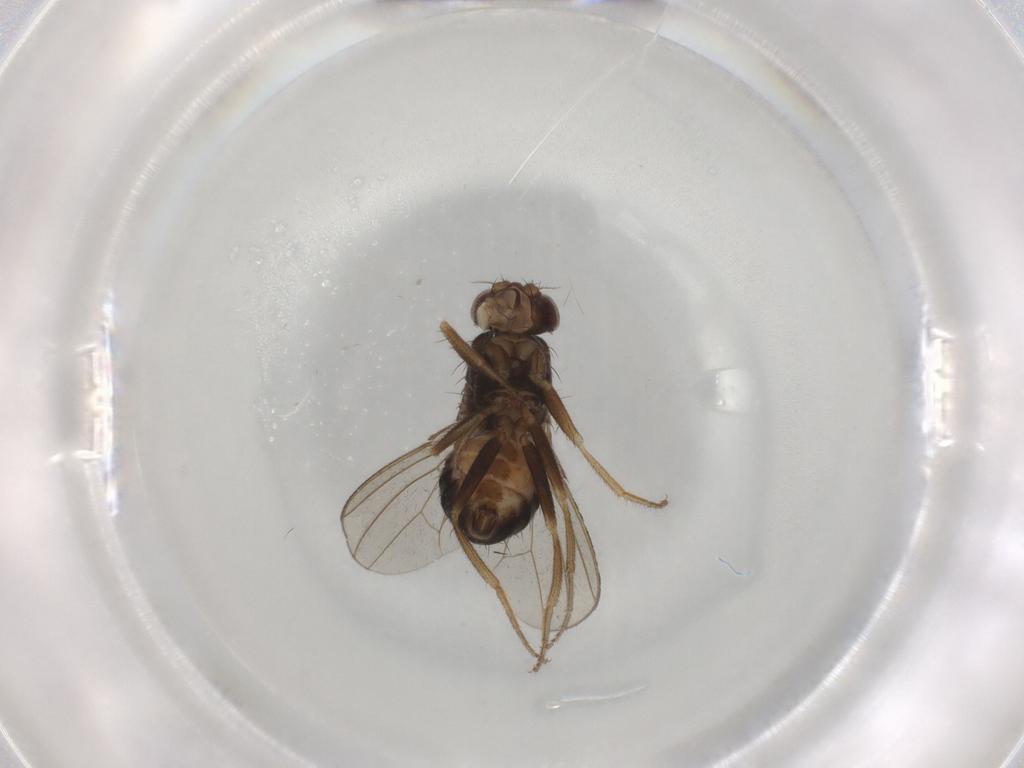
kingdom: Animalia
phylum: Arthropoda
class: Insecta
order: Diptera
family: Drosophilidae
